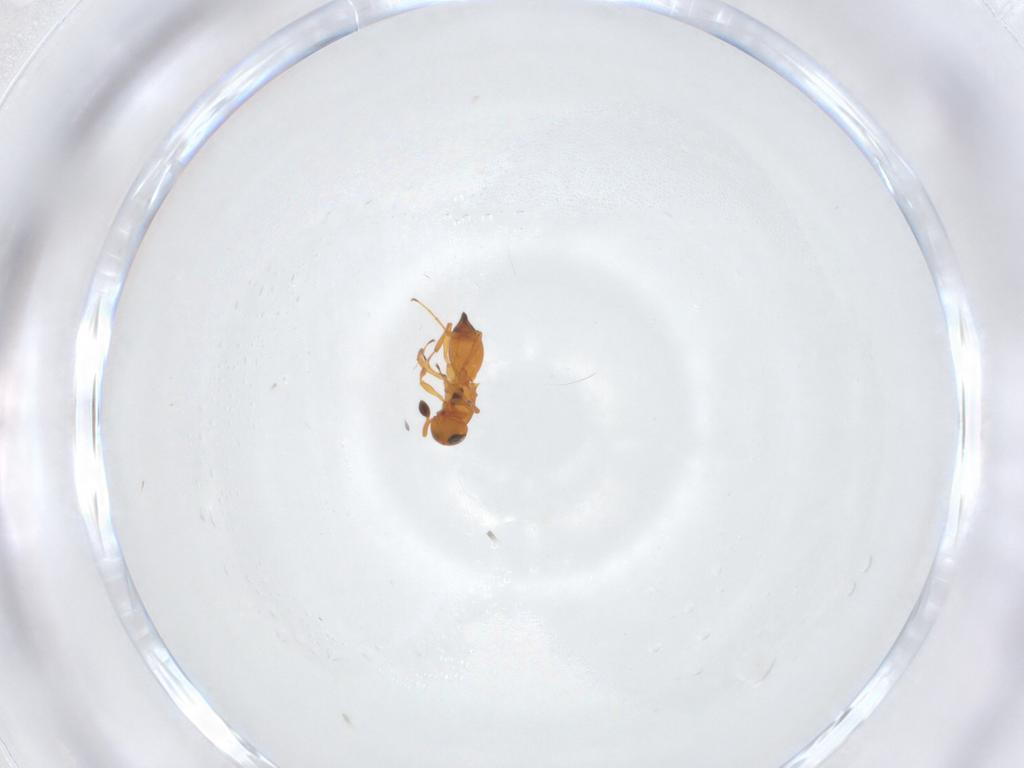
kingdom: Animalia
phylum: Arthropoda
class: Insecta
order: Hymenoptera
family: Platygastridae
